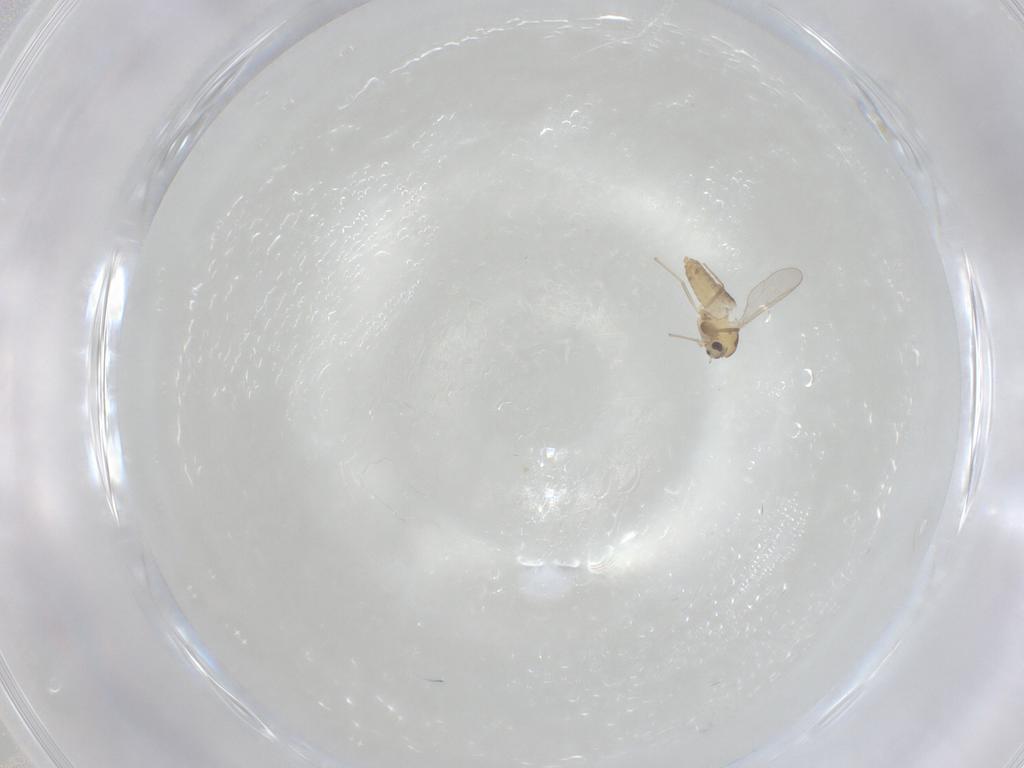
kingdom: Animalia
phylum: Arthropoda
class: Insecta
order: Diptera
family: Chironomidae
